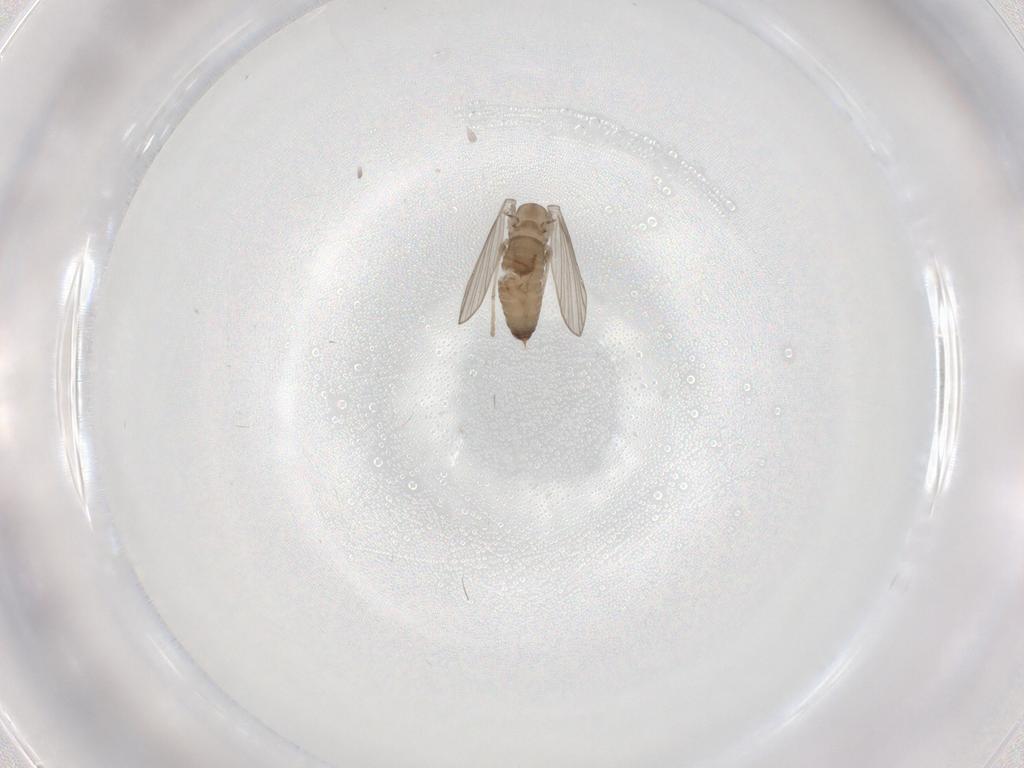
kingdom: Animalia
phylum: Arthropoda
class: Insecta
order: Diptera
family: Psychodidae
